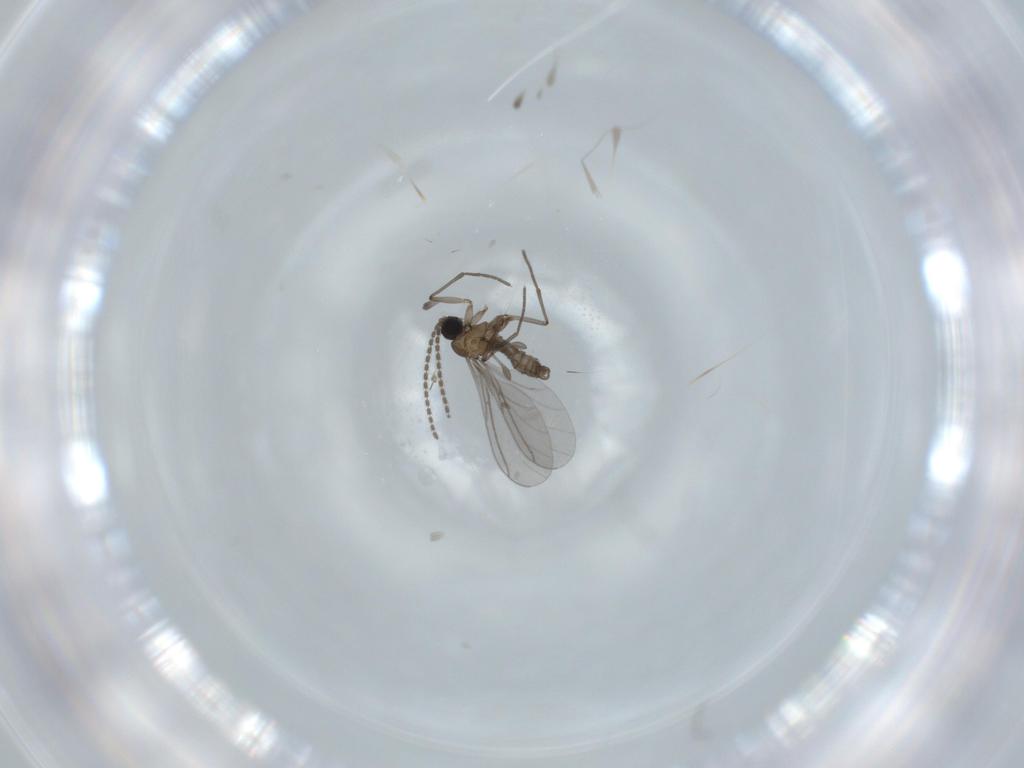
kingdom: Animalia
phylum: Arthropoda
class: Insecta
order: Diptera
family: Sciaridae
